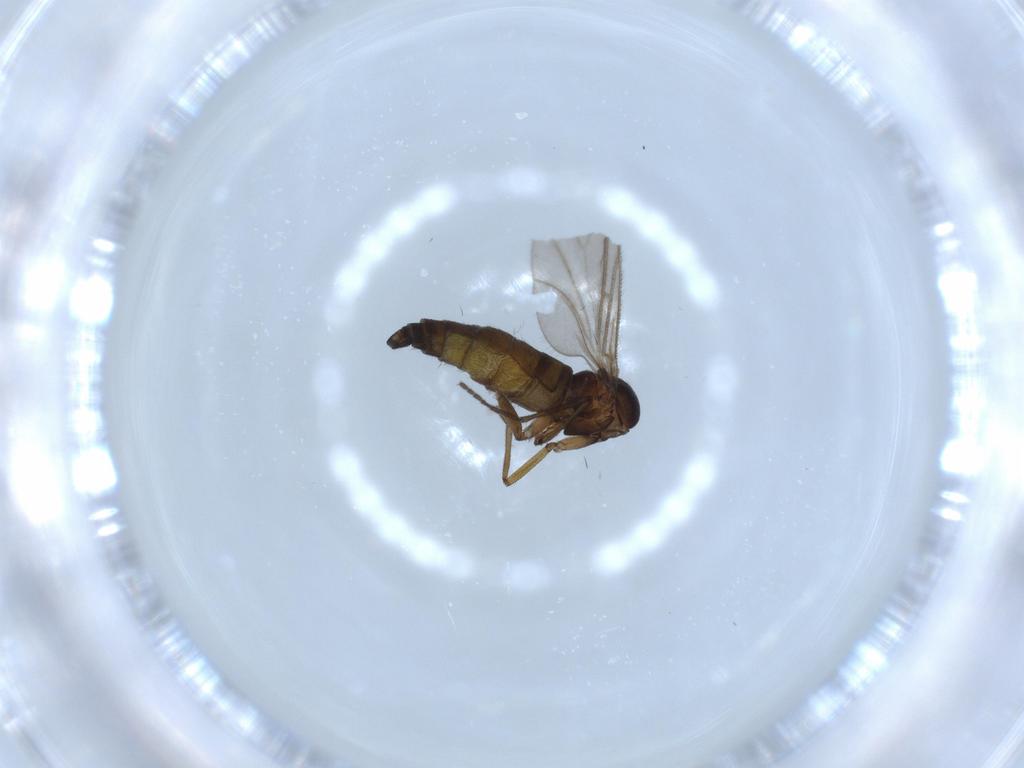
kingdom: Animalia
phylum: Arthropoda
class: Insecta
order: Diptera
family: Sciaridae
